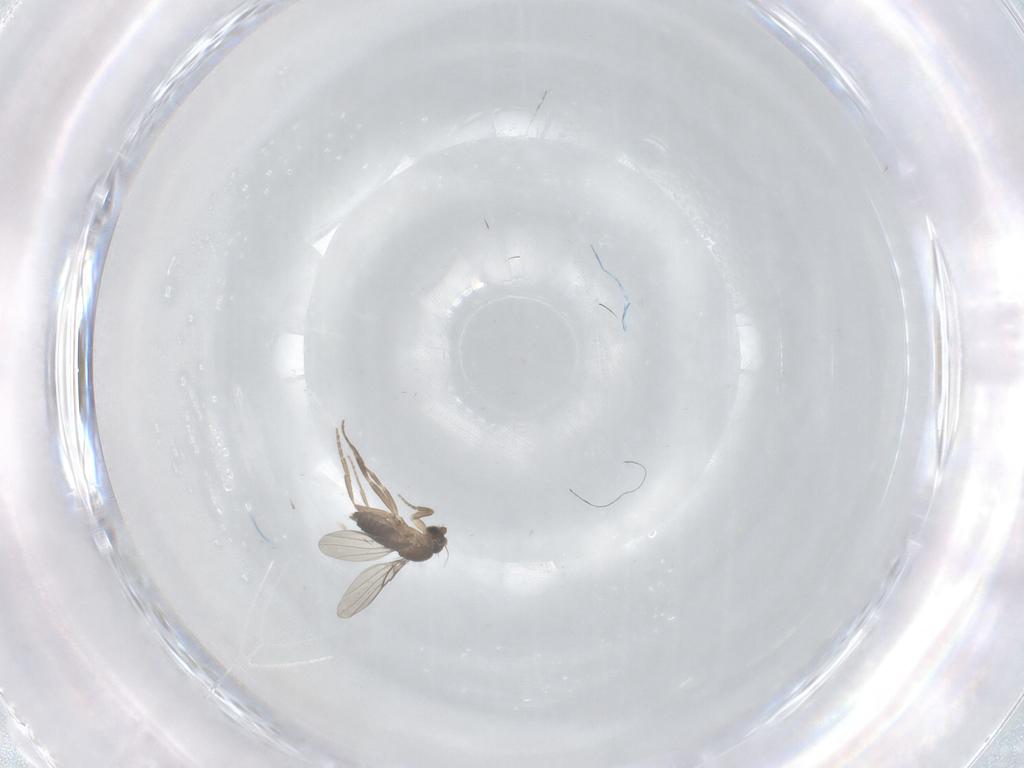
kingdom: Animalia
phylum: Arthropoda
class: Insecta
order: Diptera
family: Phoridae
